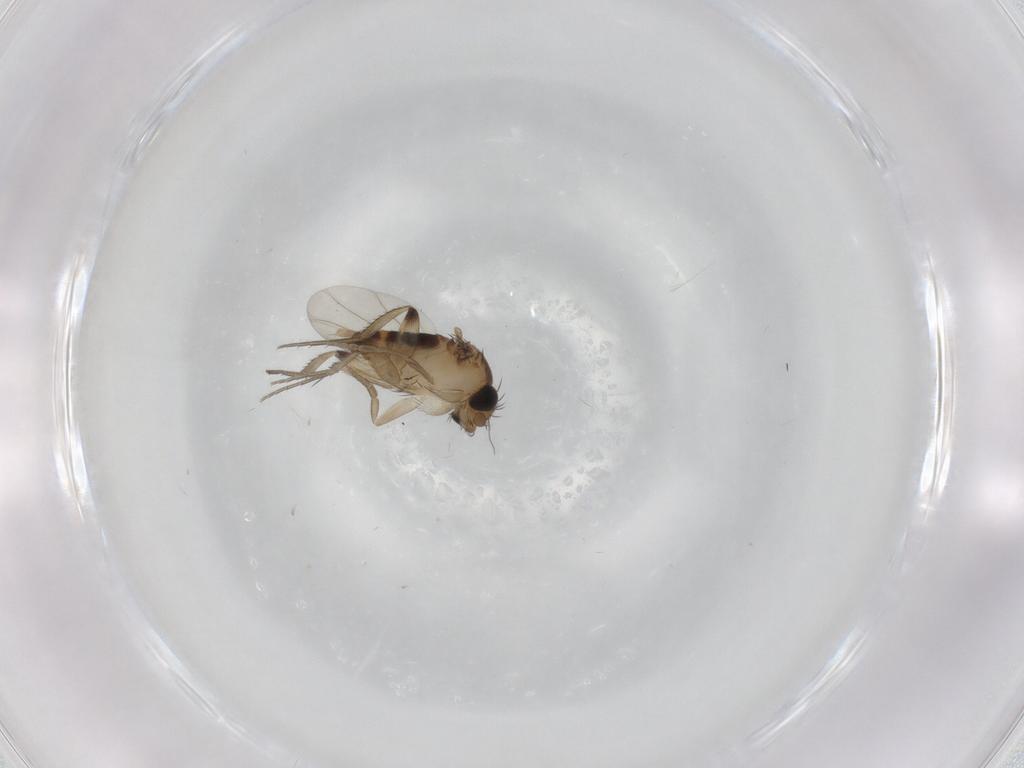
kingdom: Animalia
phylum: Arthropoda
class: Insecta
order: Diptera
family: Phoridae
